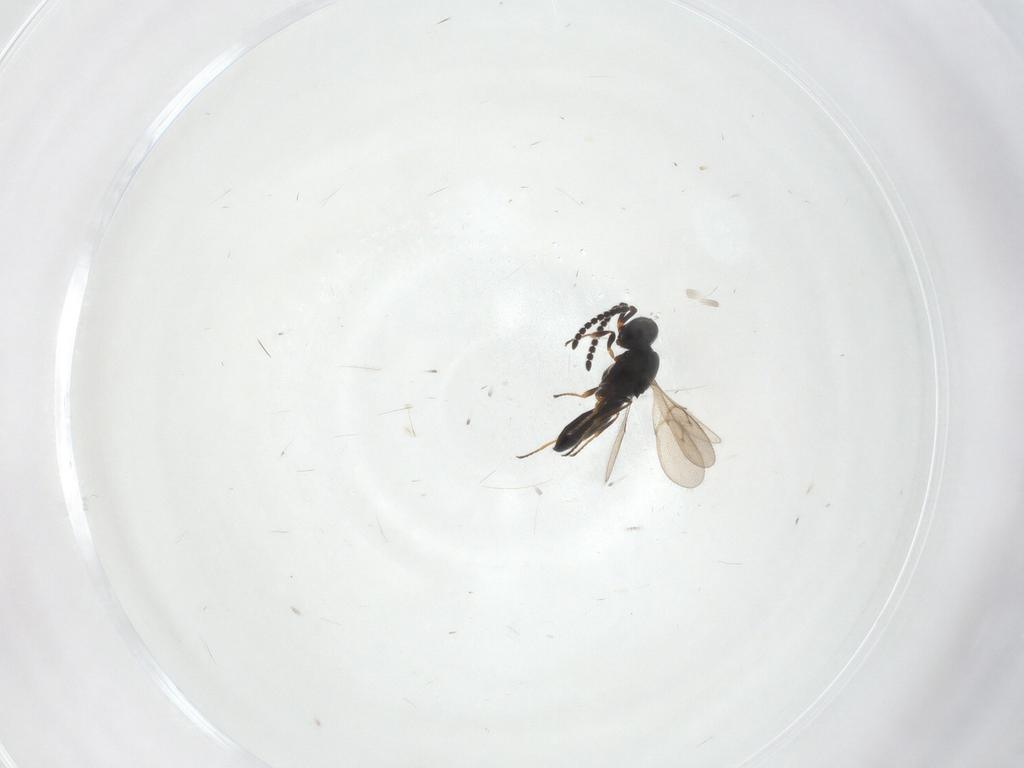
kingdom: Animalia
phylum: Arthropoda
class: Insecta
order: Hymenoptera
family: Scelionidae
